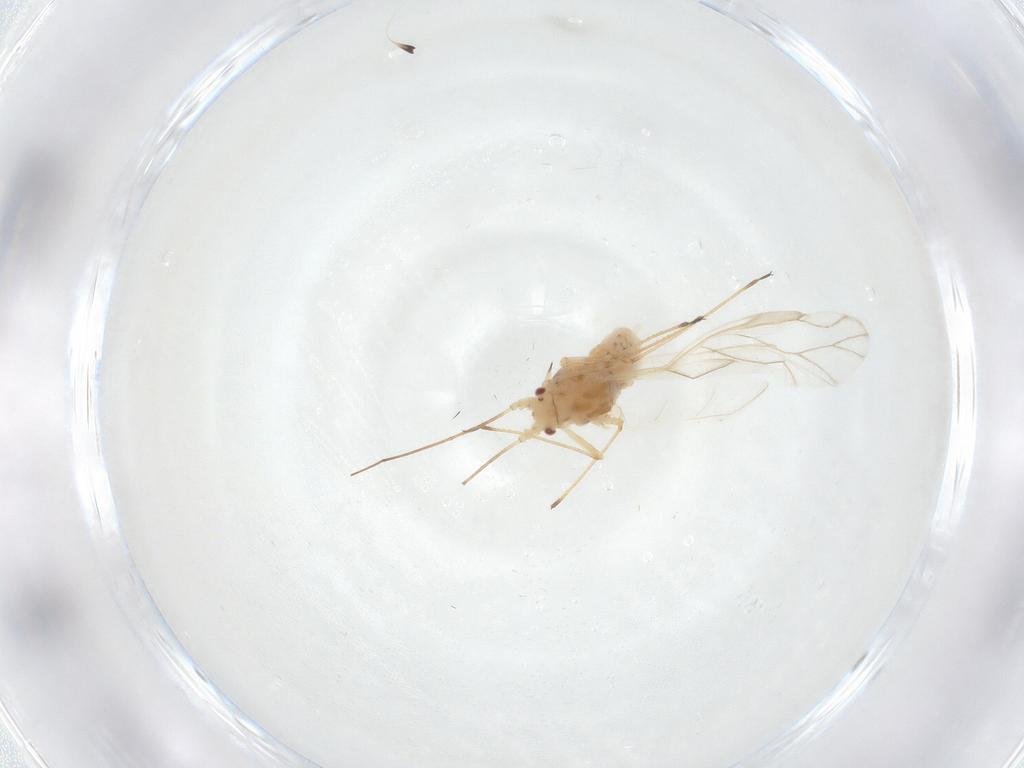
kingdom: Animalia
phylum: Arthropoda
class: Insecta
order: Hemiptera
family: Aphididae
